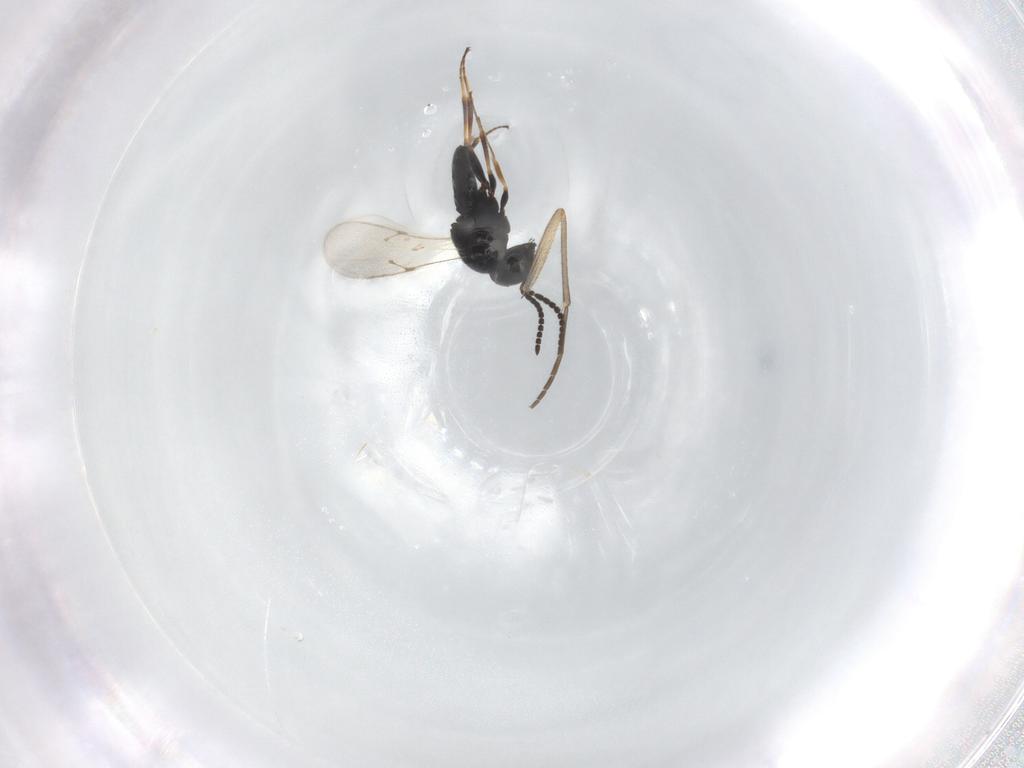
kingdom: Animalia
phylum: Arthropoda
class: Insecta
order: Hymenoptera
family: Scelionidae
